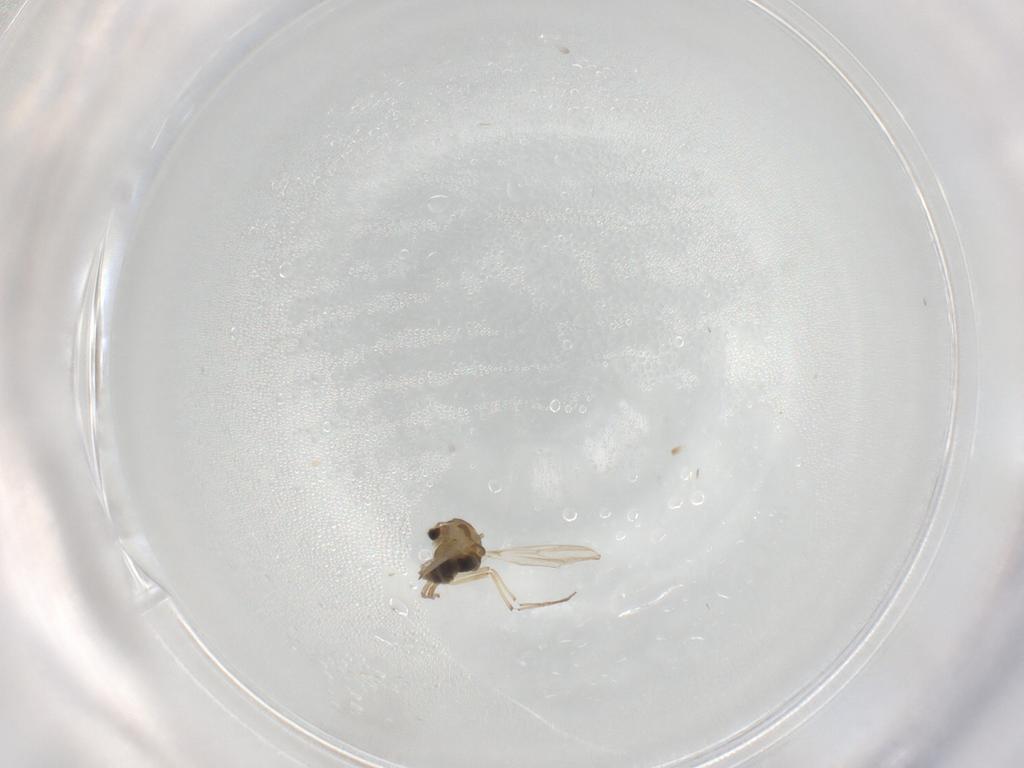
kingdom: Animalia
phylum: Arthropoda
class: Insecta
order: Diptera
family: Chironomidae
